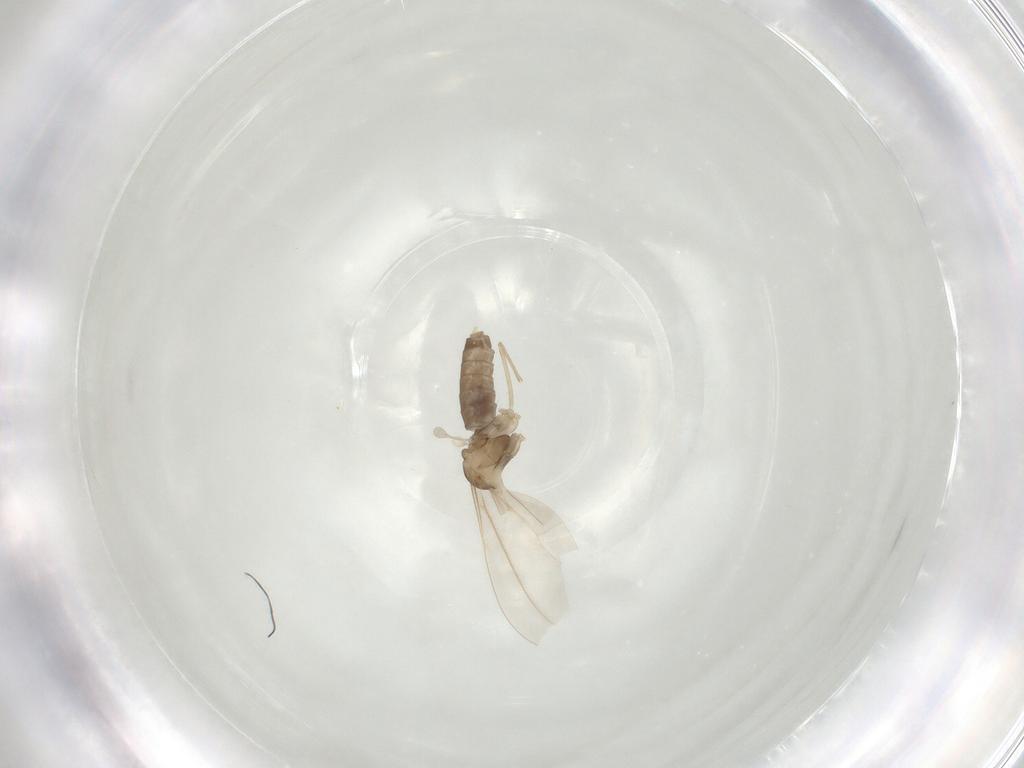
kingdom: Animalia
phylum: Arthropoda
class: Insecta
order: Diptera
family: Cecidomyiidae
